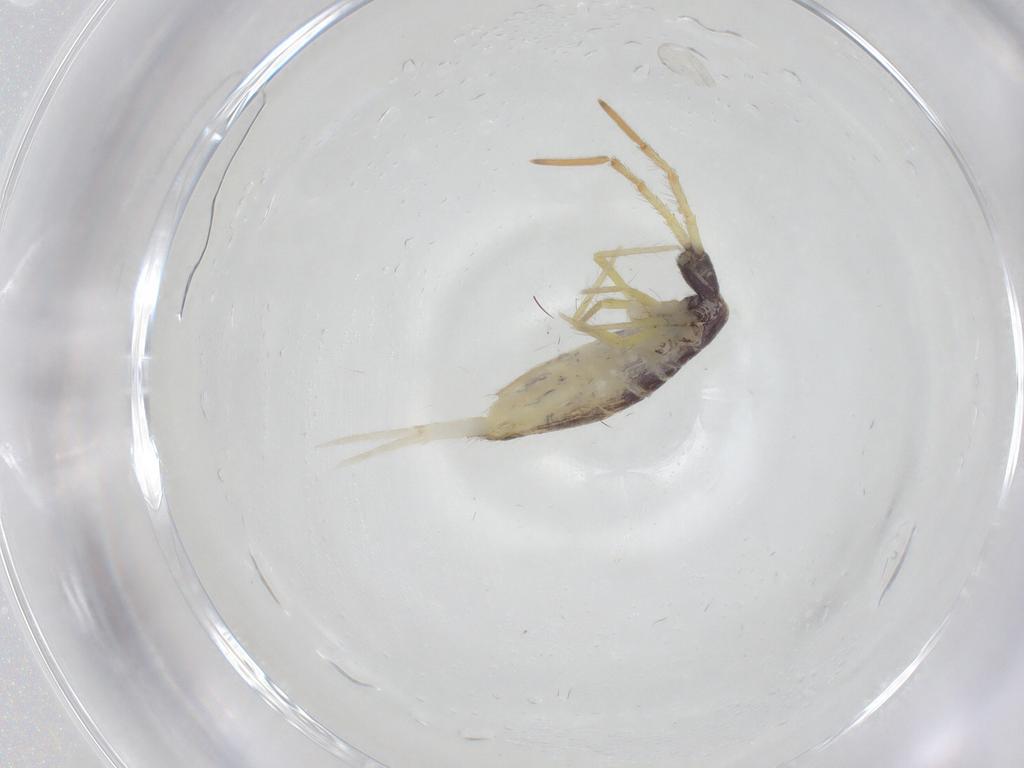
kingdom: Animalia
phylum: Arthropoda
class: Collembola
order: Entomobryomorpha
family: Entomobryidae
